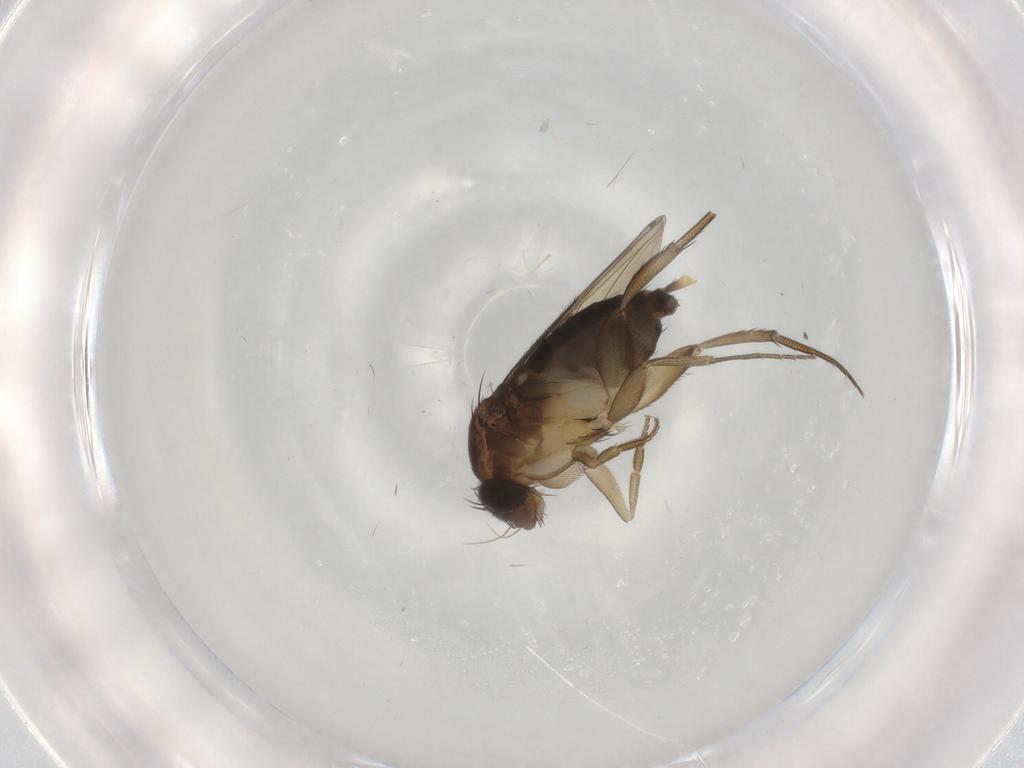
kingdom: Animalia
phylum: Arthropoda
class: Insecta
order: Diptera
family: Phoridae
